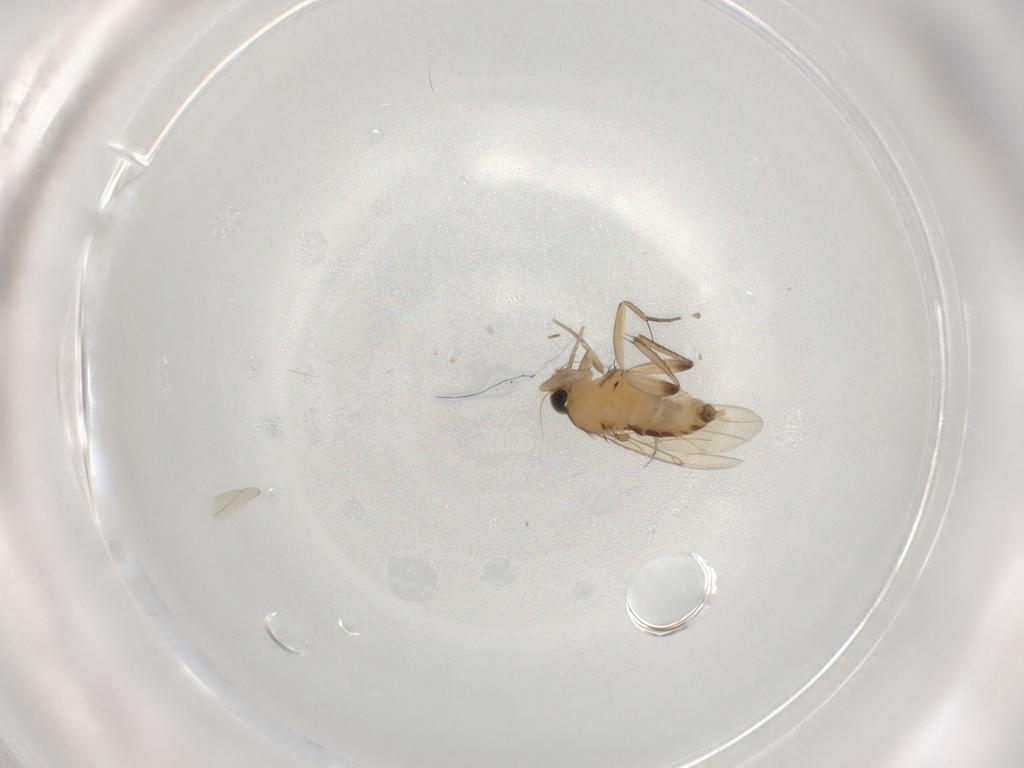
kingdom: Animalia
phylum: Arthropoda
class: Insecta
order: Diptera
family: Cecidomyiidae
